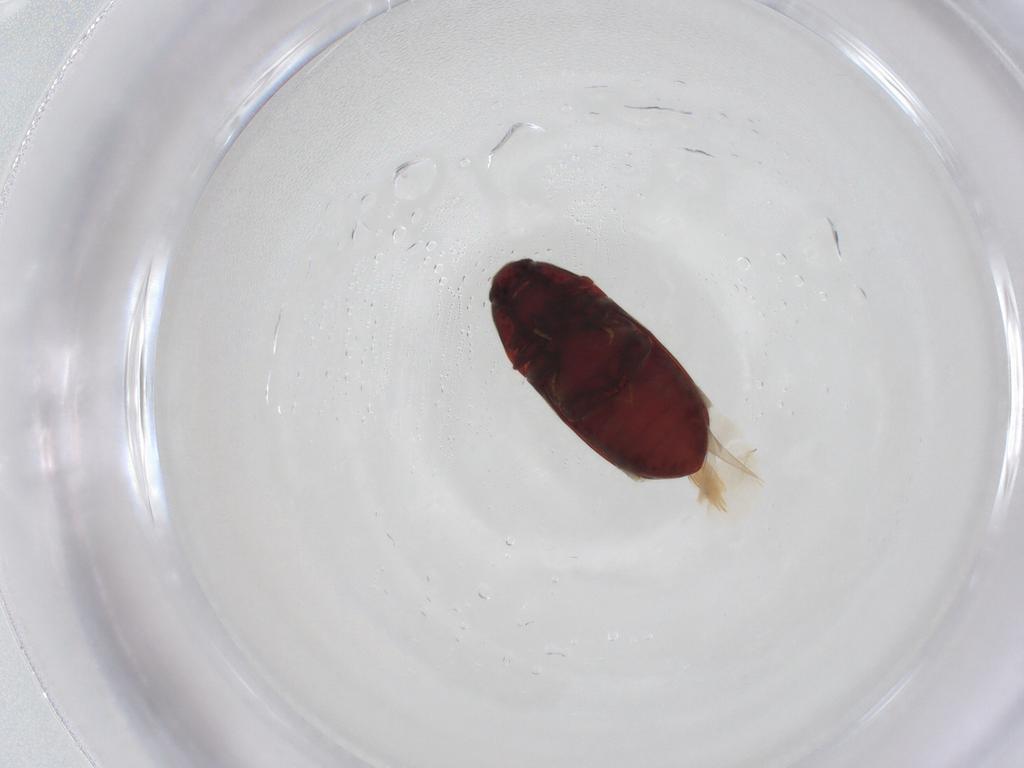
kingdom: Animalia
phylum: Arthropoda
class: Insecta
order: Coleoptera
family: Throscidae
